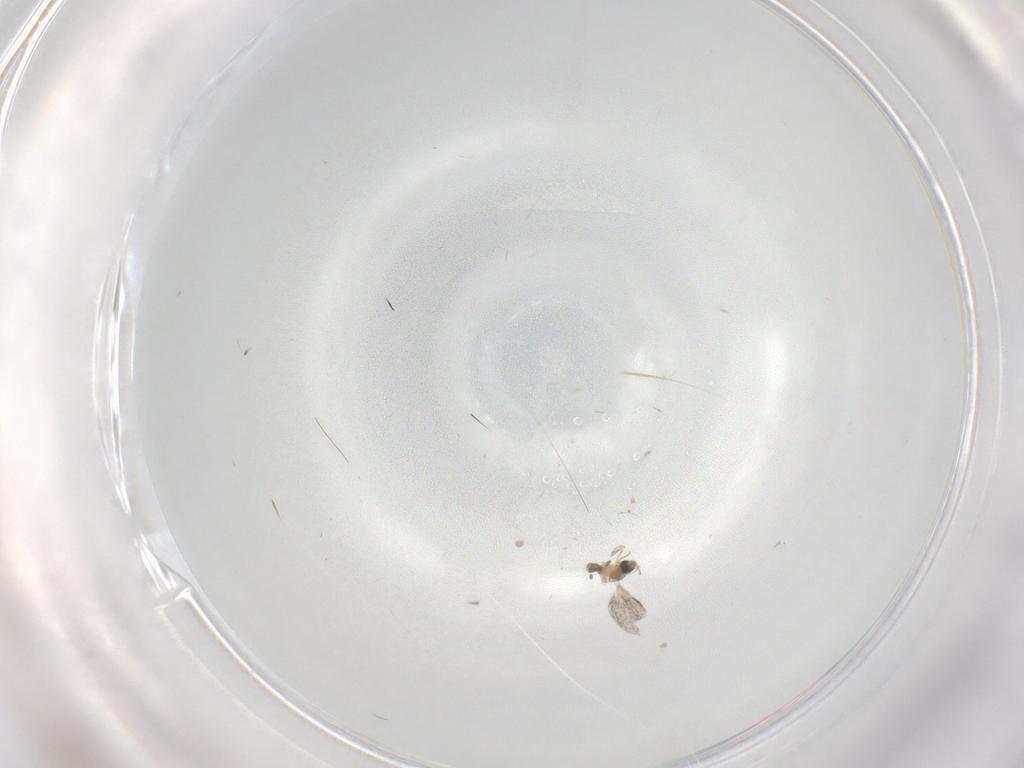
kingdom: Animalia
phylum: Arthropoda
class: Insecta
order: Diptera
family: Cecidomyiidae
